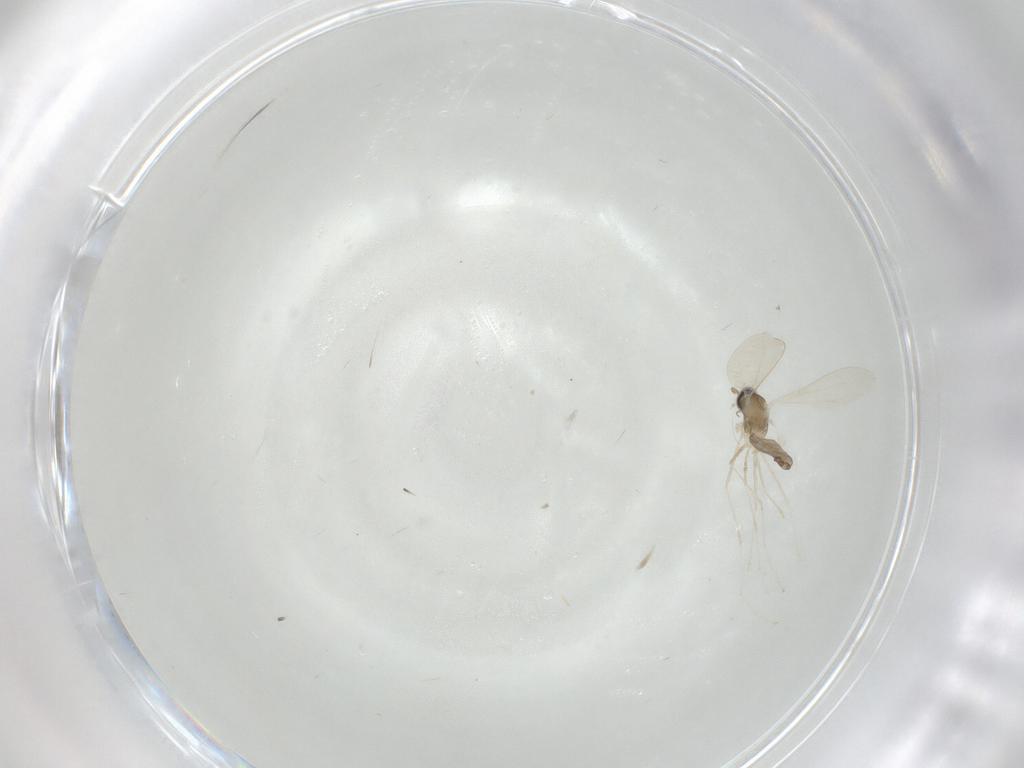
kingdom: Animalia
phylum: Arthropoda
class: Insecta
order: Diptera
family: Cecidomyiidae
